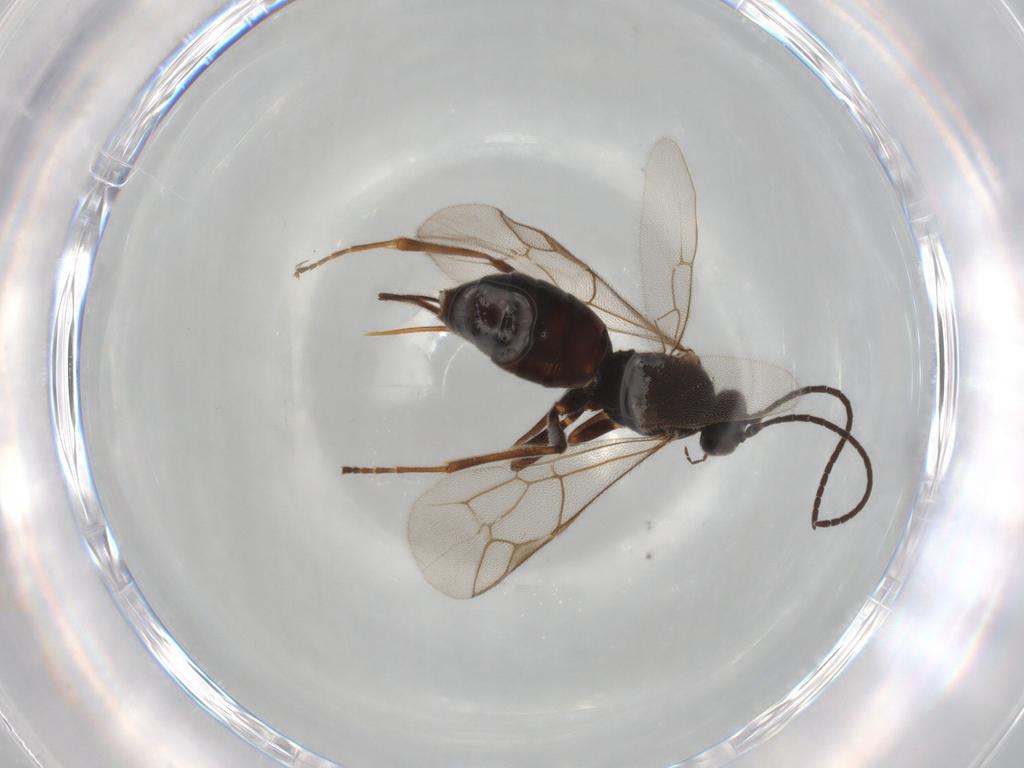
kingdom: Animalia
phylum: Arthropoda
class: Insecta
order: Hymenoptera
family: Ichneumonidae
